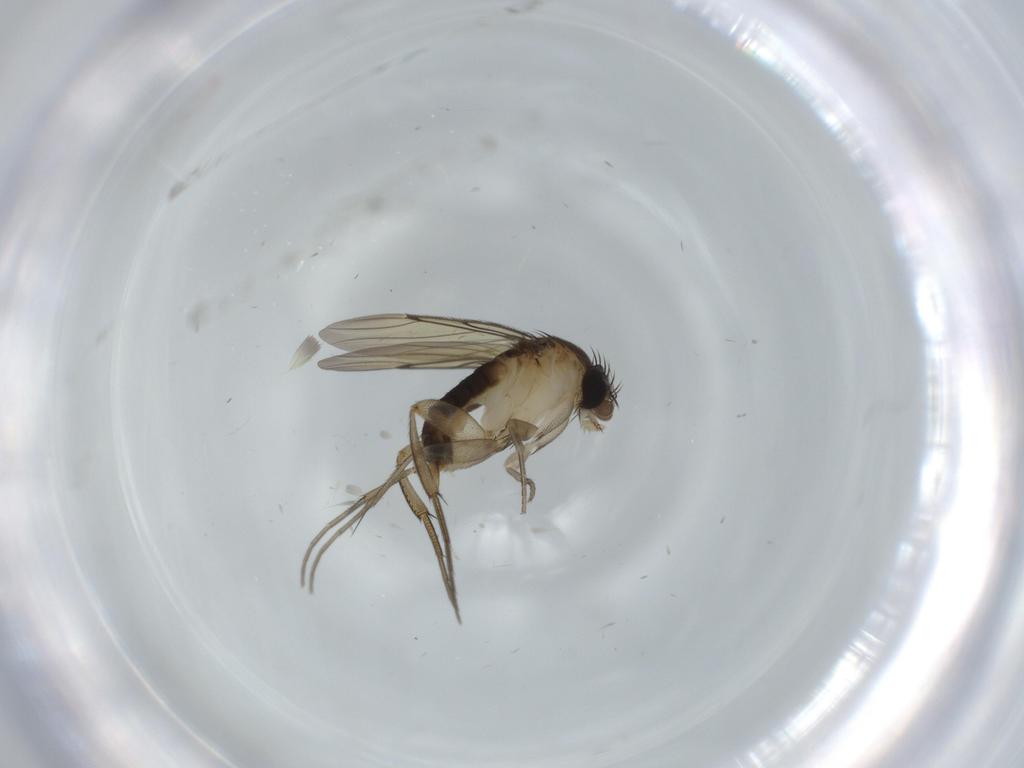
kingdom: Animalia
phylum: Arthropoda
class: Insecta
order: Diptera
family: Phoridae
